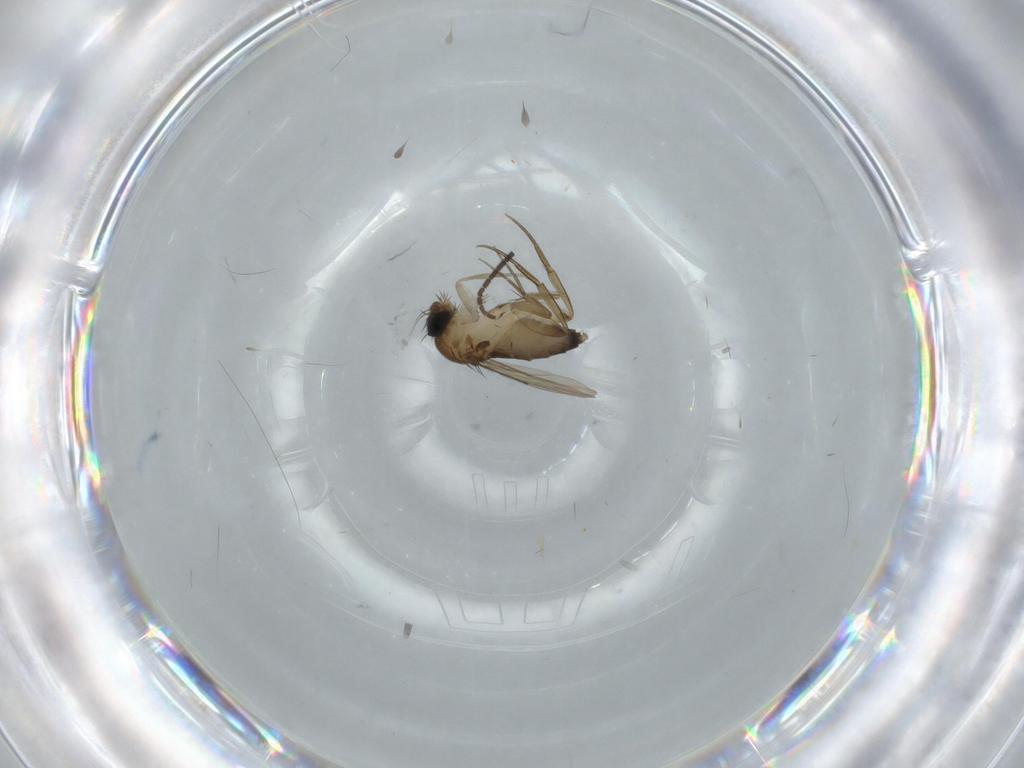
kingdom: Animalia
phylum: Arthropoda
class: Insecta
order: Diptera
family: Phoridae
